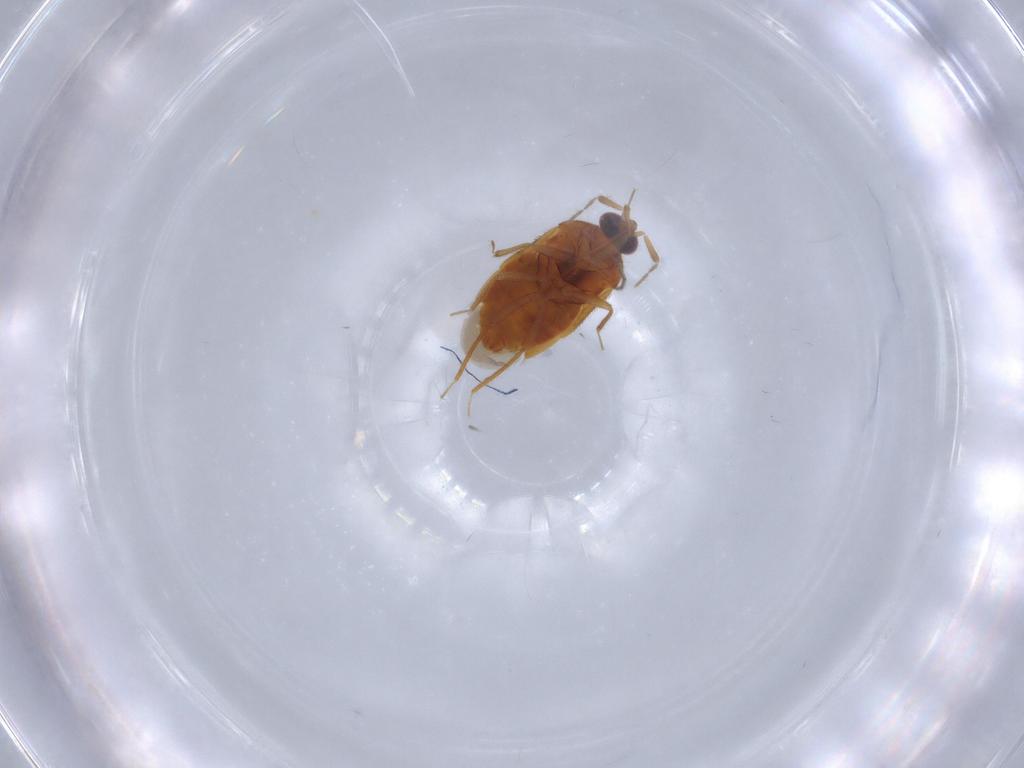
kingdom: Animalia
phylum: Arthropoda
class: Insecta
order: Hemiptera
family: Anthocoridae
